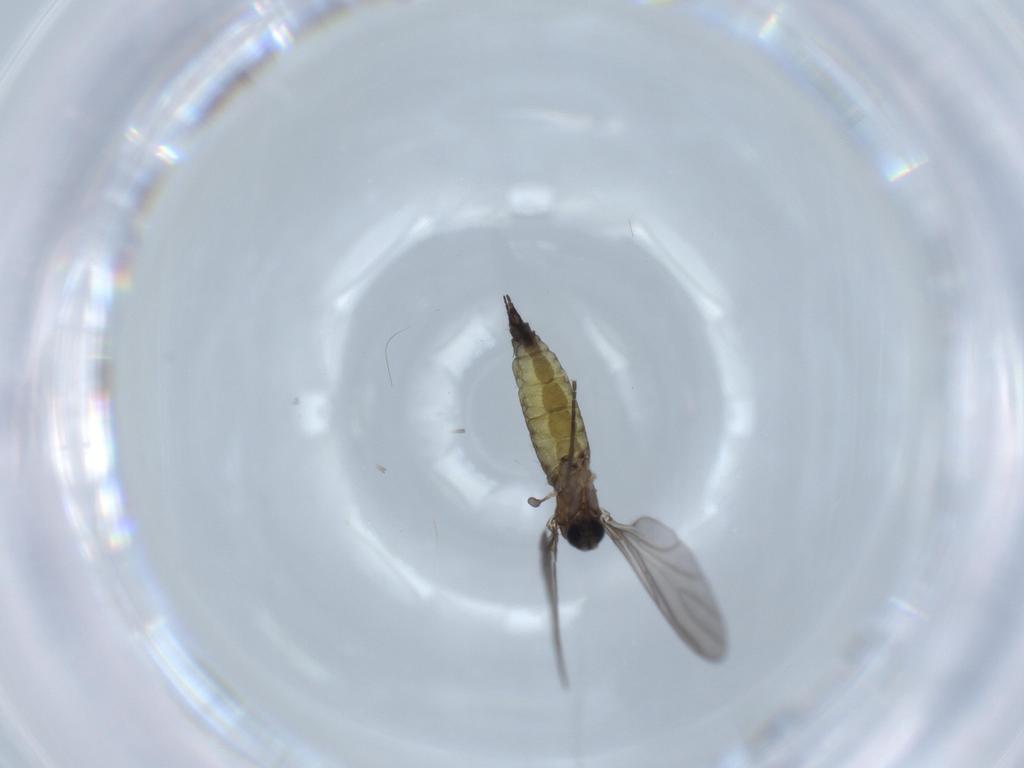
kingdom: Animalia
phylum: Arthropoda
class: Insecta
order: Diptera
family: Sciaridae
